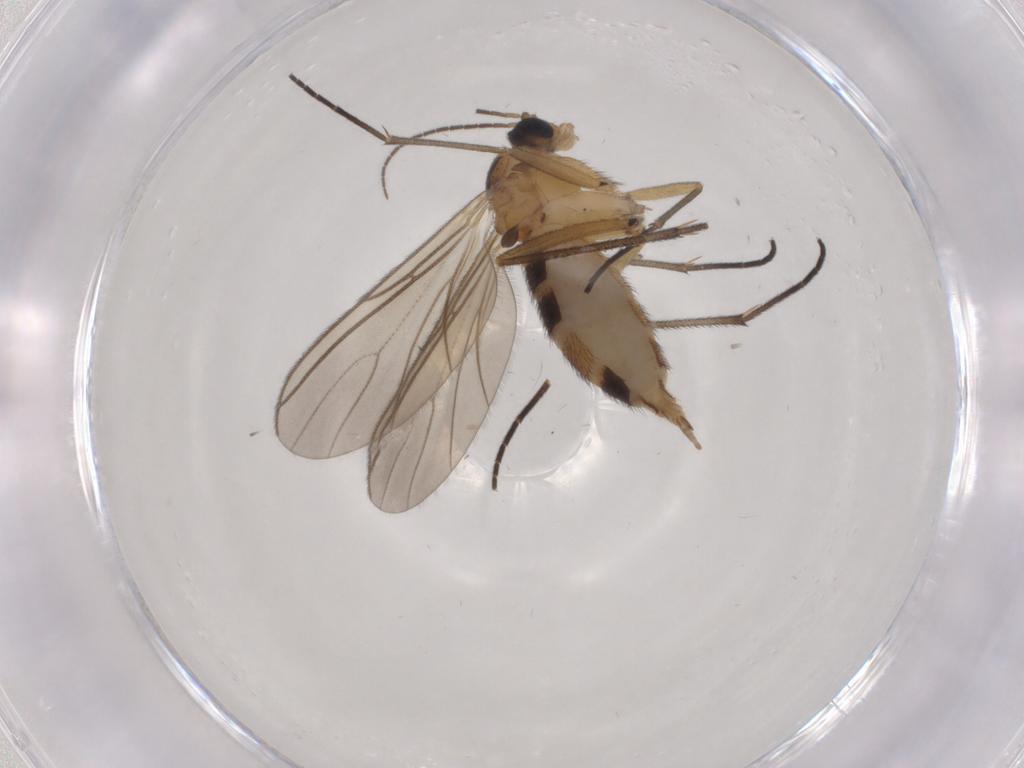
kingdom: Animalia
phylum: Arthropoda
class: Insecta
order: Diptera
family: Sciaridae
